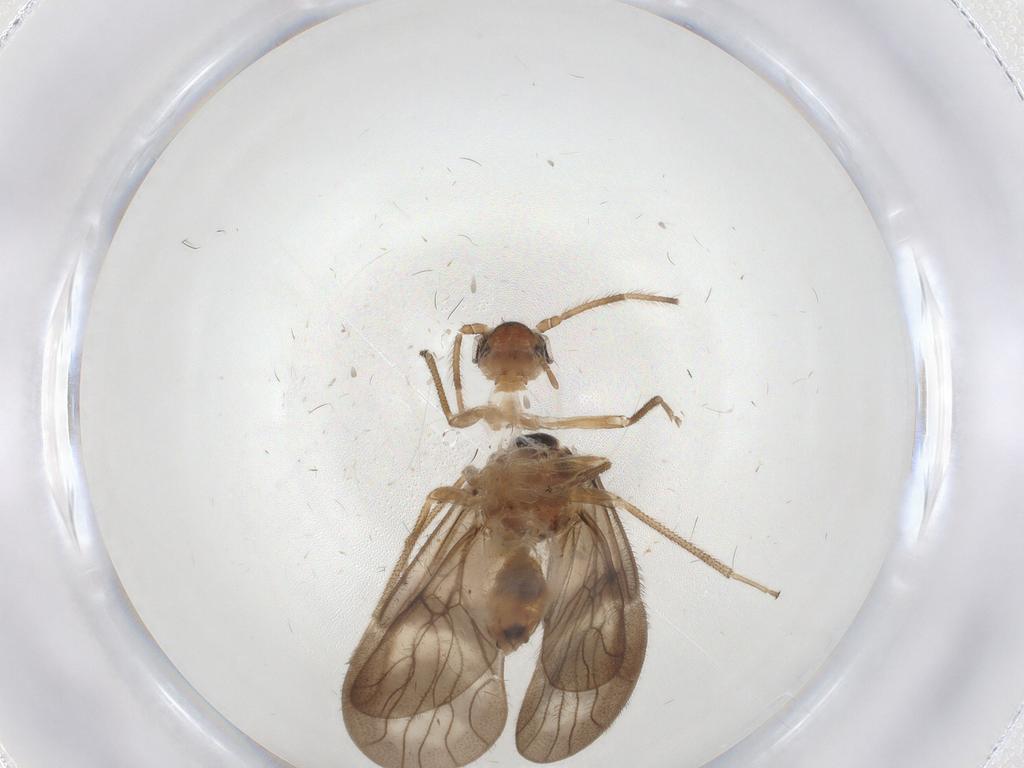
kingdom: Animalia
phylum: Arthropoda
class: Insecta
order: Psocodea
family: Amphipsocidae
